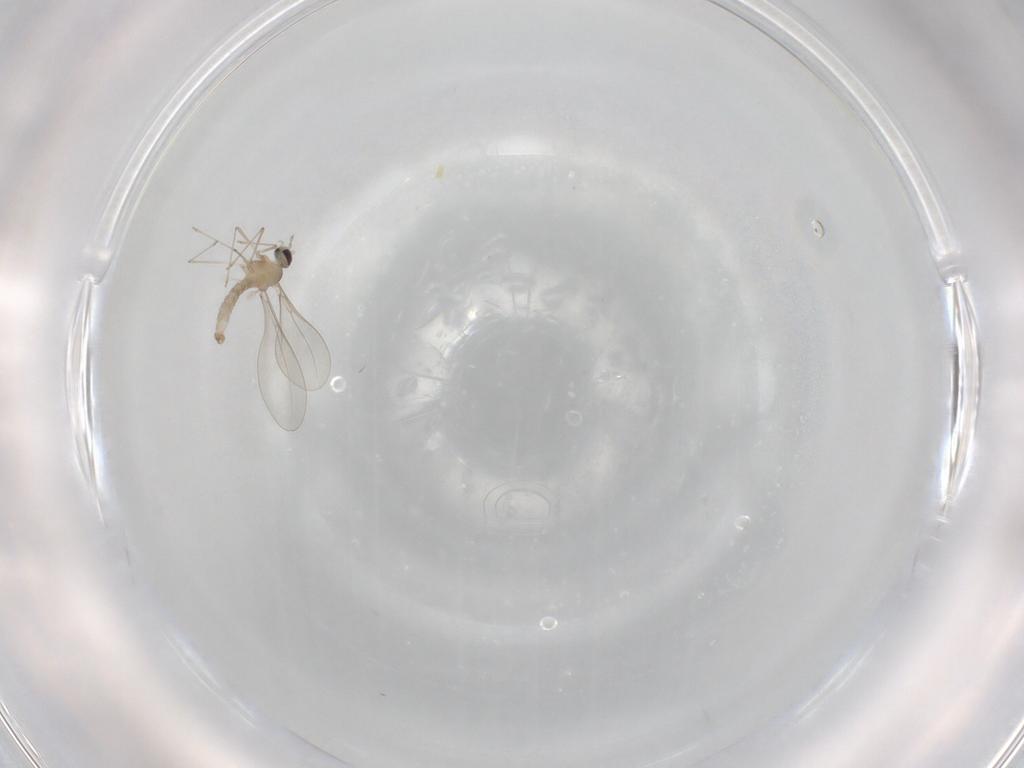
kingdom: Animalia
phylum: Arthropoda
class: Insecta
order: Diptera
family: Cecidomyiidae
